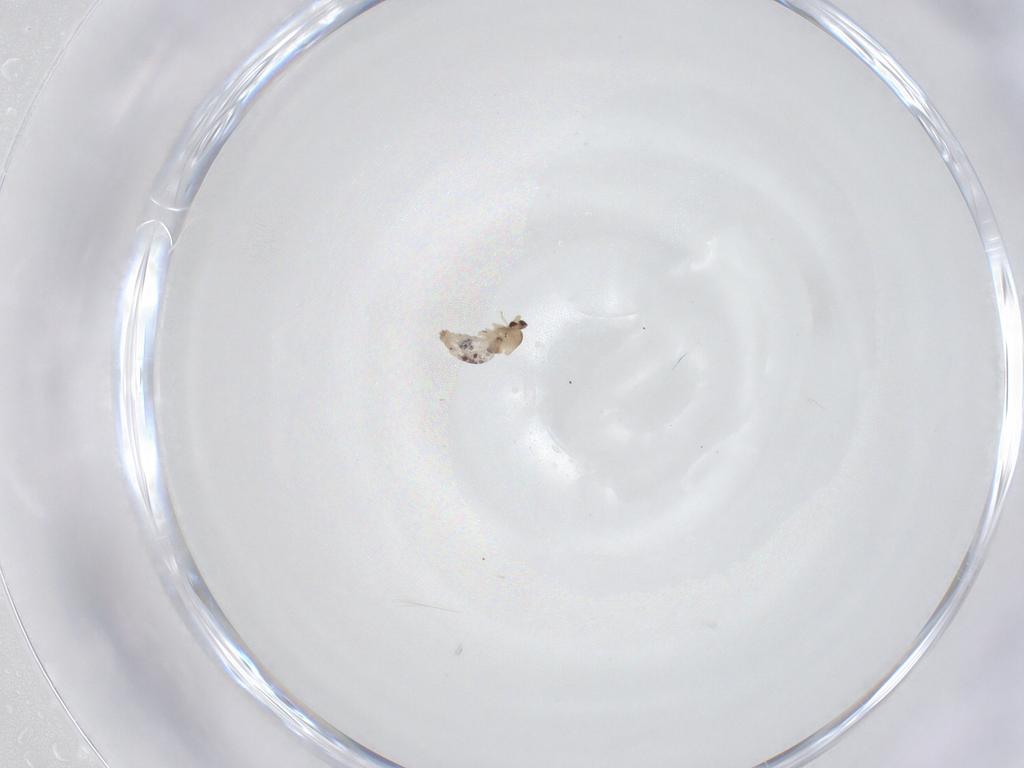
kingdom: Animalia
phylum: Arthropoda
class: Insecta
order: Diptera
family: Cecidomyiidae
